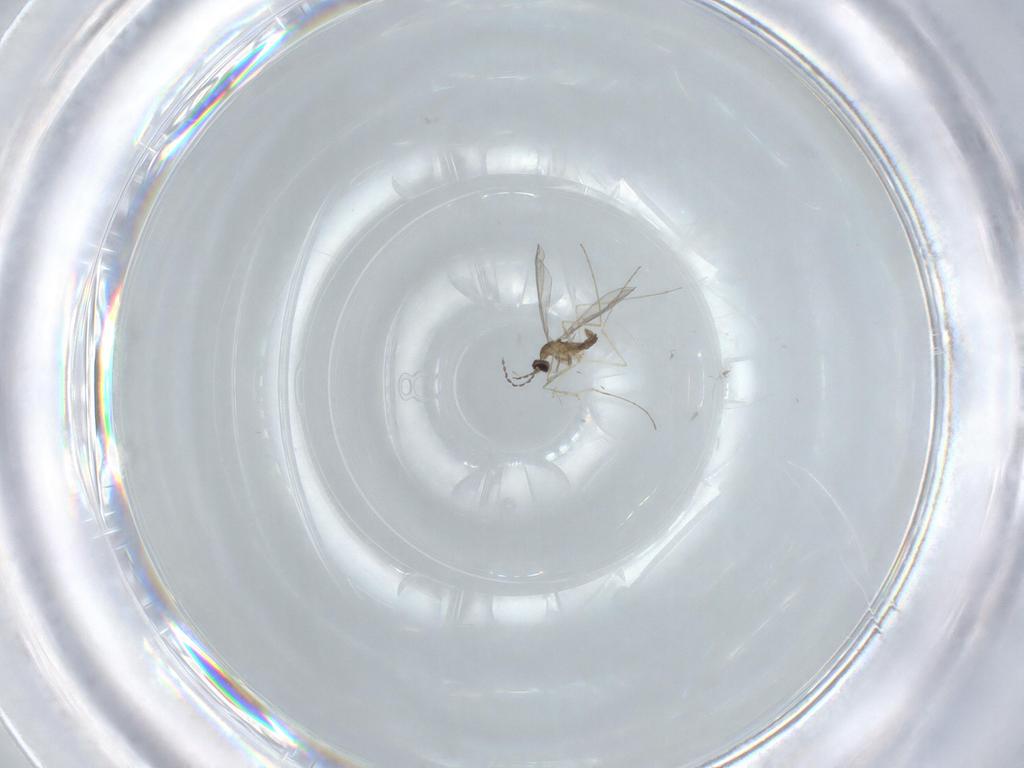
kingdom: Animalia
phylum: Arthropoda
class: Insecta
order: Diptera
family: Cecidomyiidae
